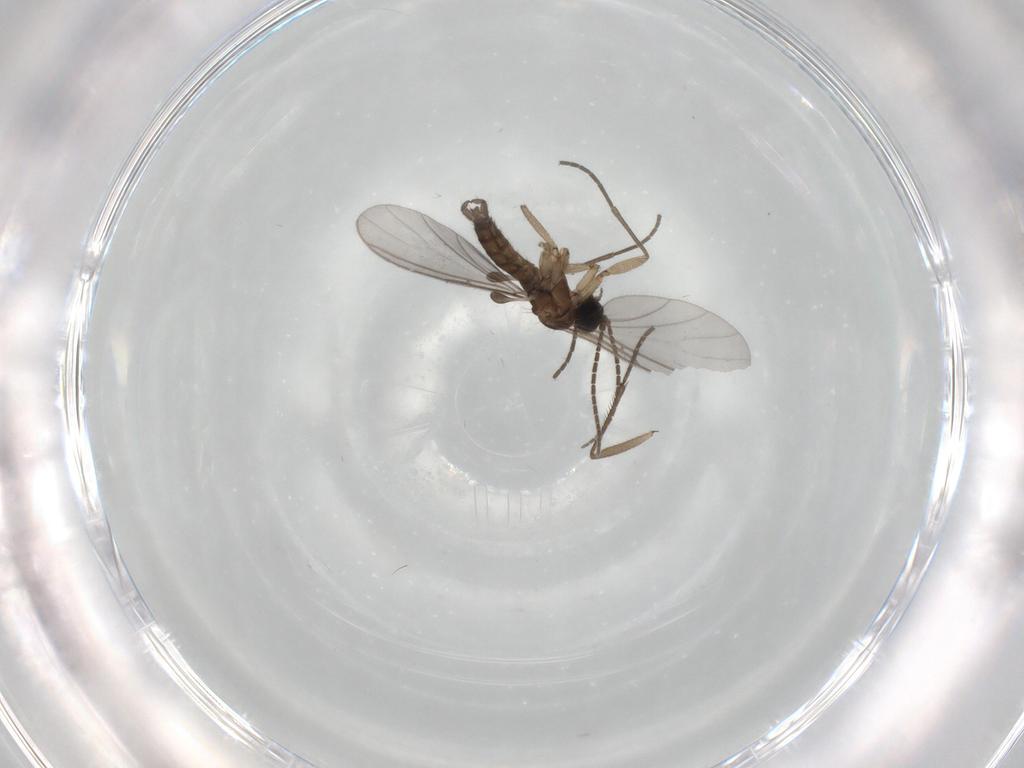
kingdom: Animalia
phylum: Arthropoda
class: Insecta
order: Diptera
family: Sciaridae
